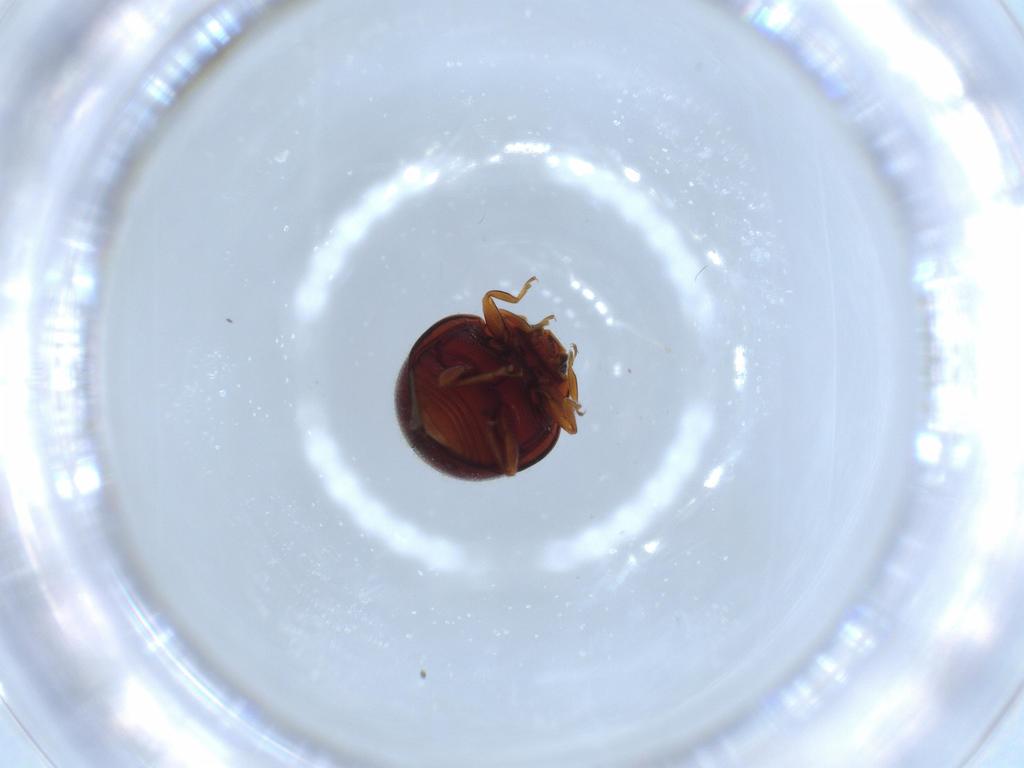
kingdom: Animalia
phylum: Arthropoda
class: Insecta
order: Coleoptera
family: Coccinellidae
